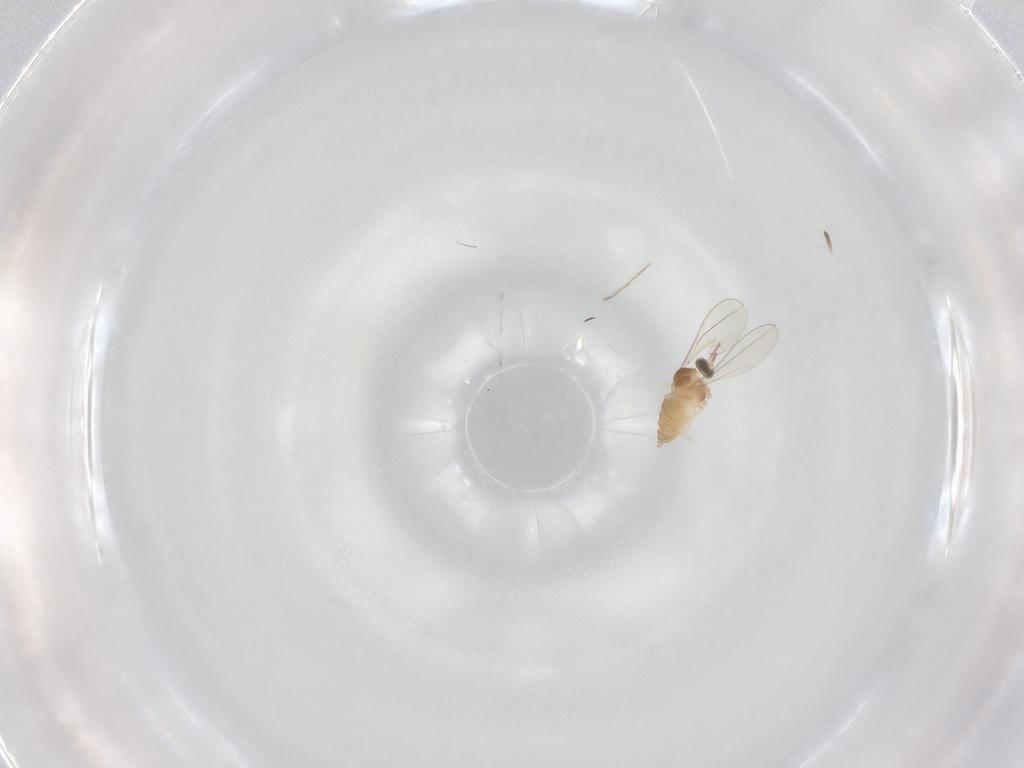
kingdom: Animalia
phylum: Arthropoda
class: Insecta
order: Diptera
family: Cecidomyiidae
